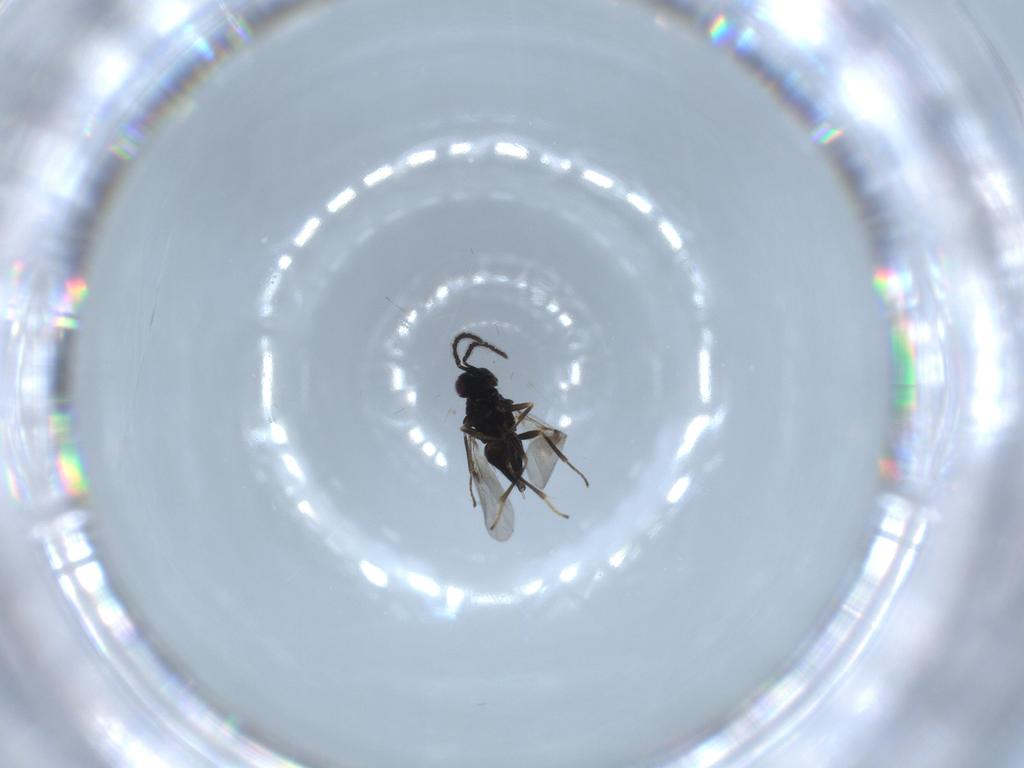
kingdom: Animalia
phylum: Arthropoda
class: Insecta
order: Hymenoptera
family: Encyrtidae
